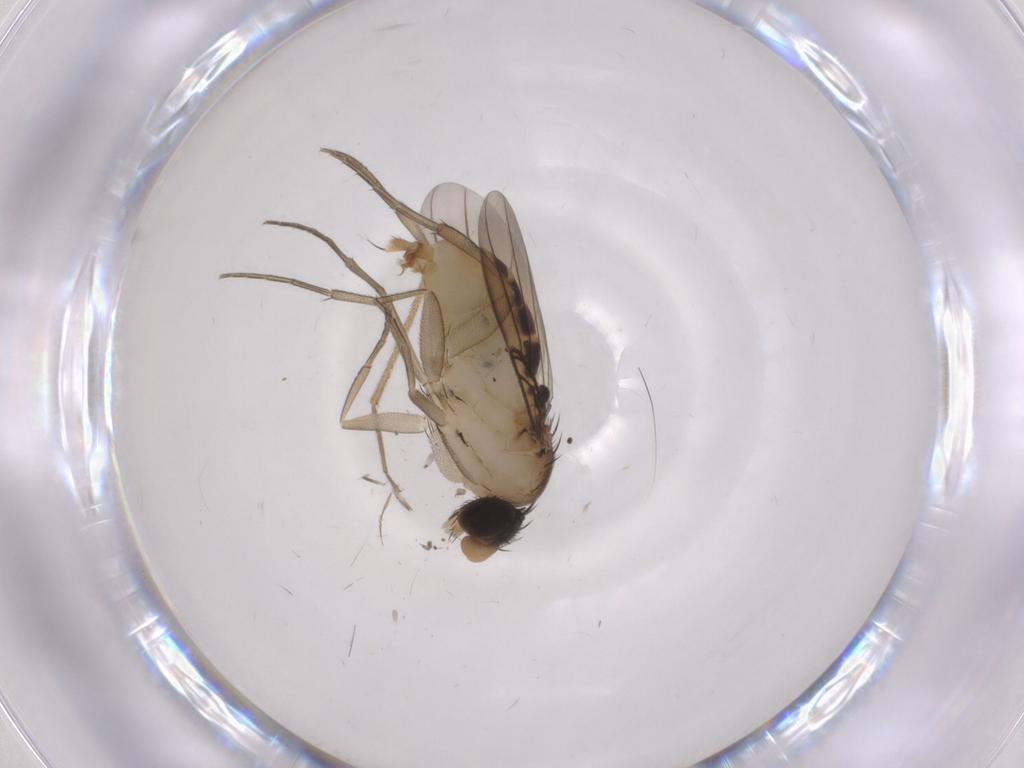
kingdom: Animalia
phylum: Arthropoda
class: Insecta
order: Diptera
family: Phoridae
